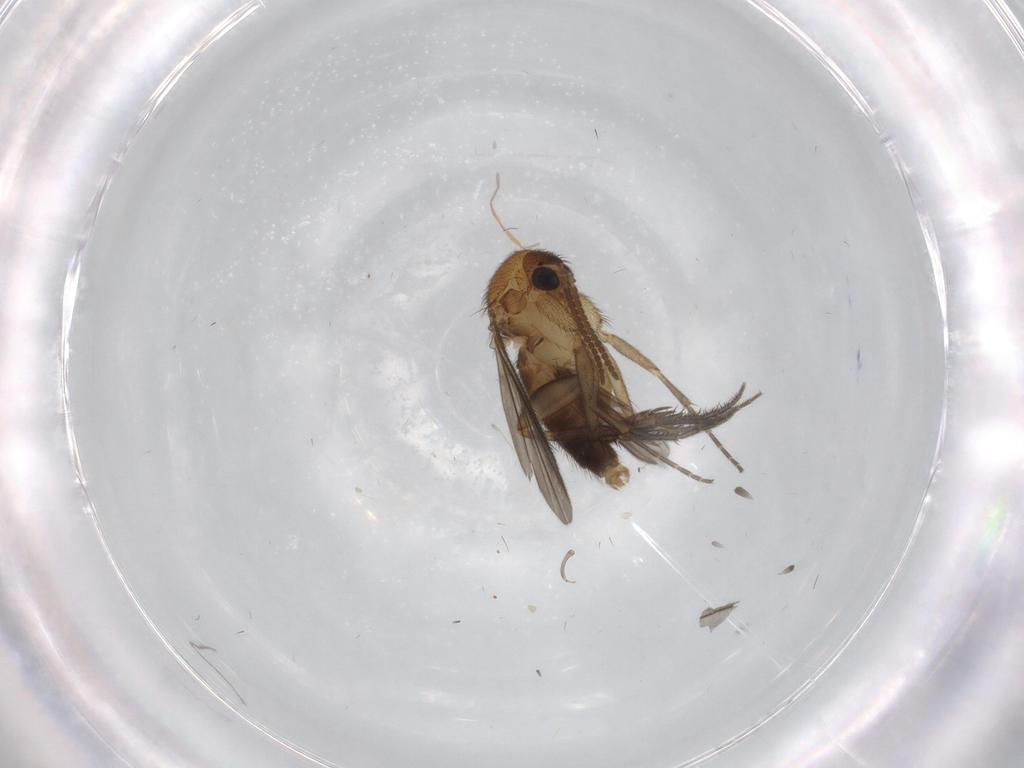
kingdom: Animalia
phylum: Arthropoda
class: Insecta
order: Diptera
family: Mycetophilidae
